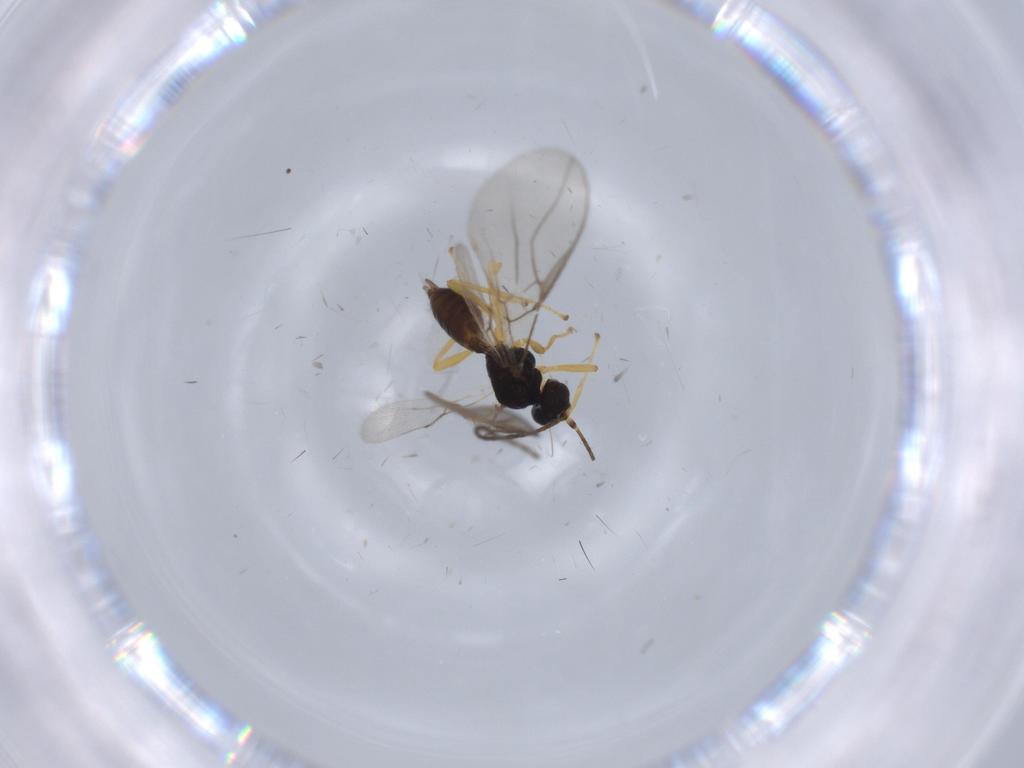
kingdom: Animalia
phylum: Arthropoda
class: Insecta
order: Hymenoptera
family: Braconidae
